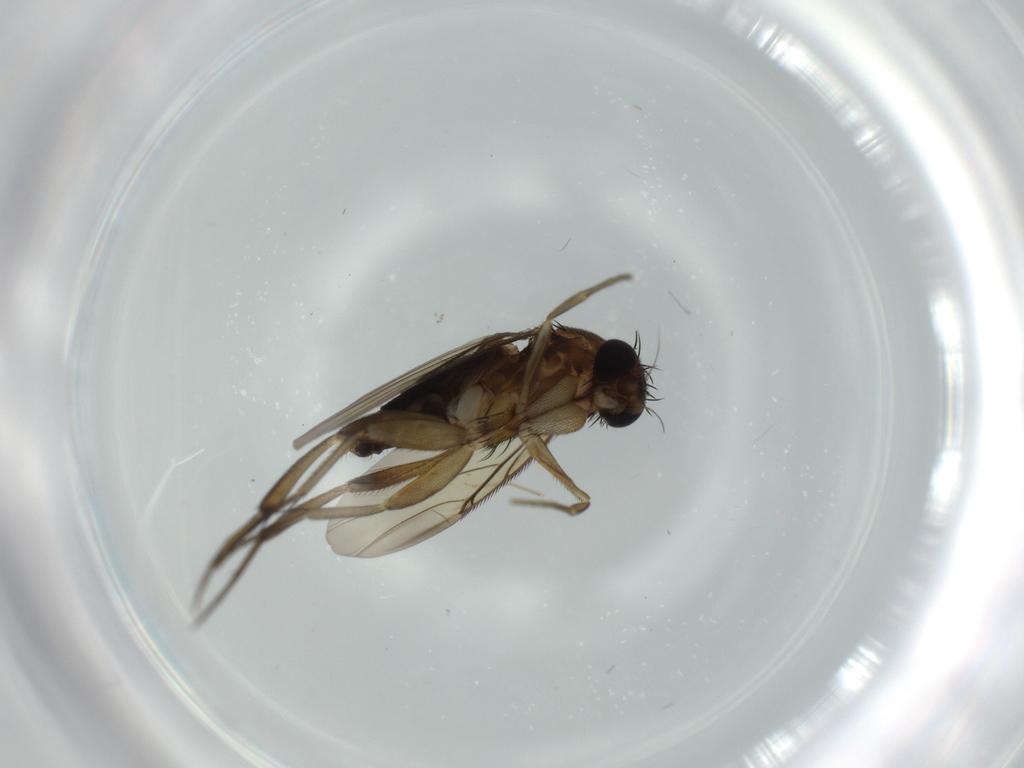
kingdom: Animalia
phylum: Arthropoda
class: Insecta
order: Diptera
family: Phoridae
